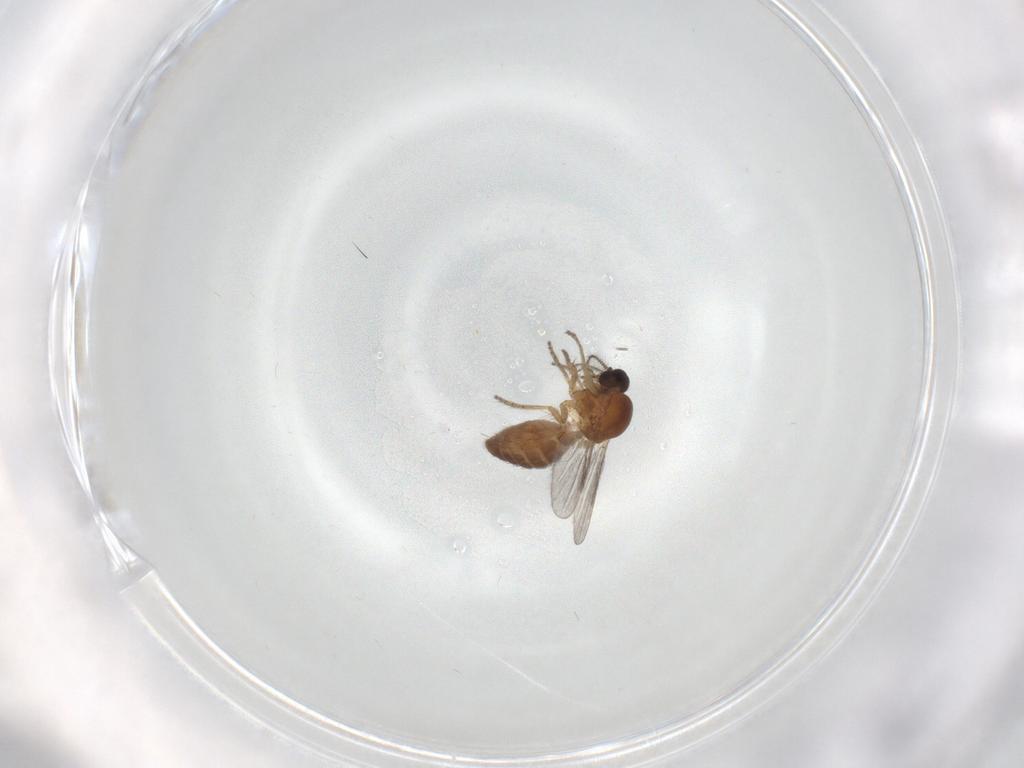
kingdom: Animalia
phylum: Arthropoda
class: Insecta
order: Diptera
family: Ceratopogonidae
